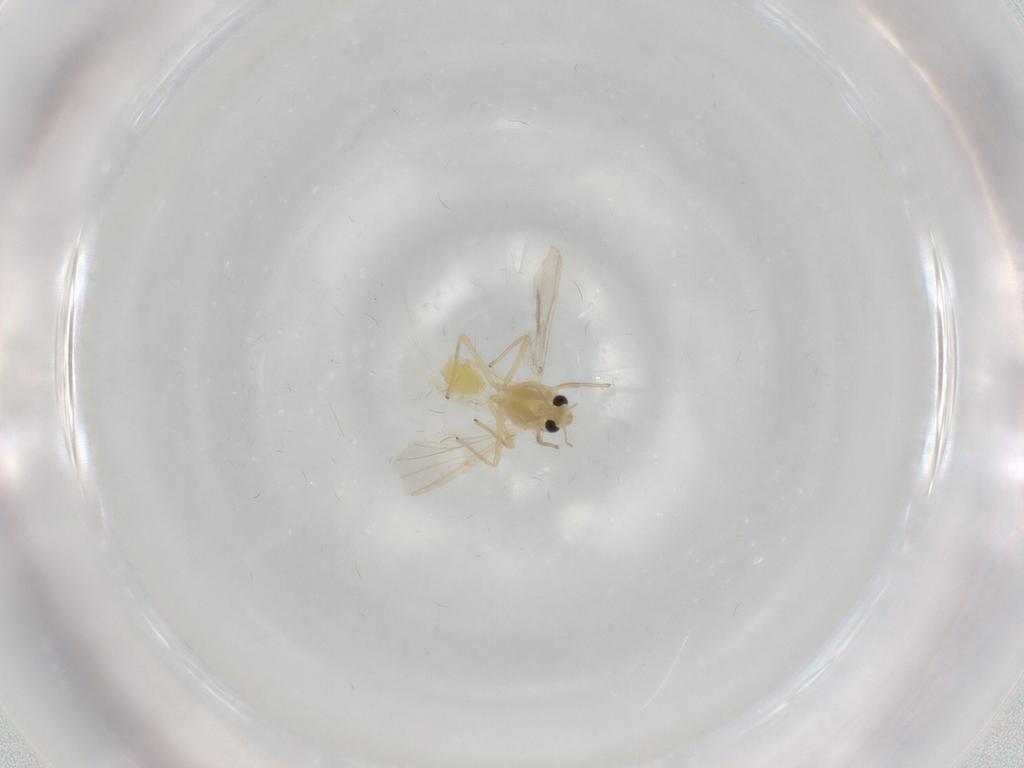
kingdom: Animalia
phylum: Arthropoda
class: Insecta
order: Diptera
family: Chironomidae
